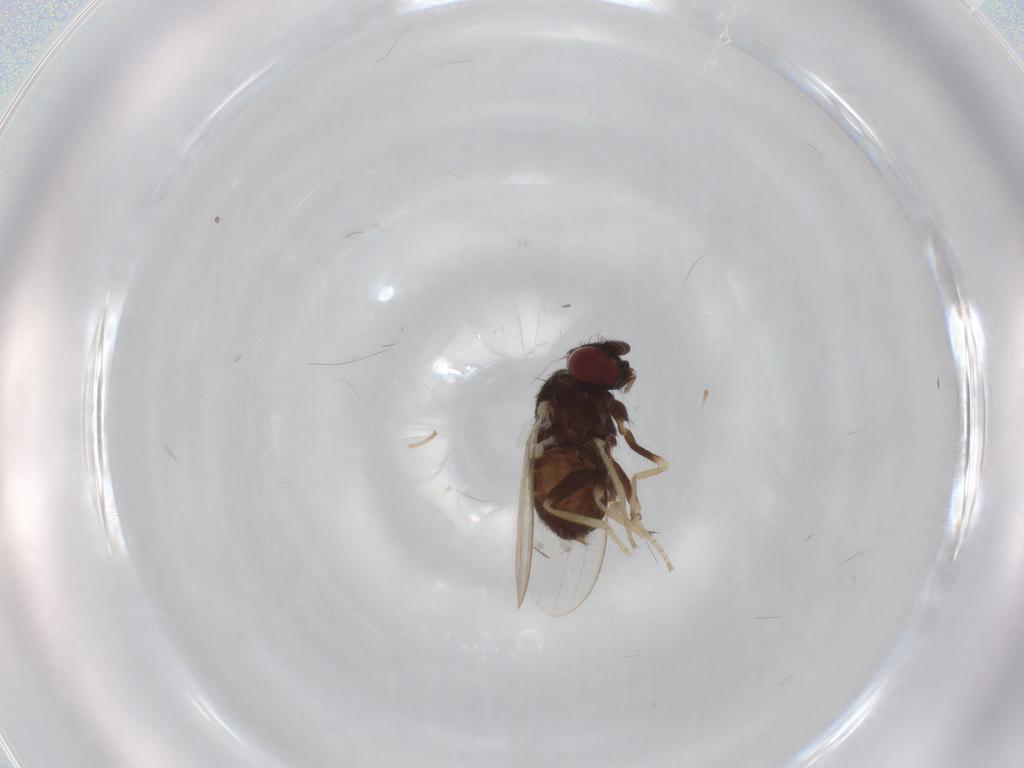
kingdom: Animalia
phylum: Arthropoda
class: Insecta
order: Diptera
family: Milichiidae
